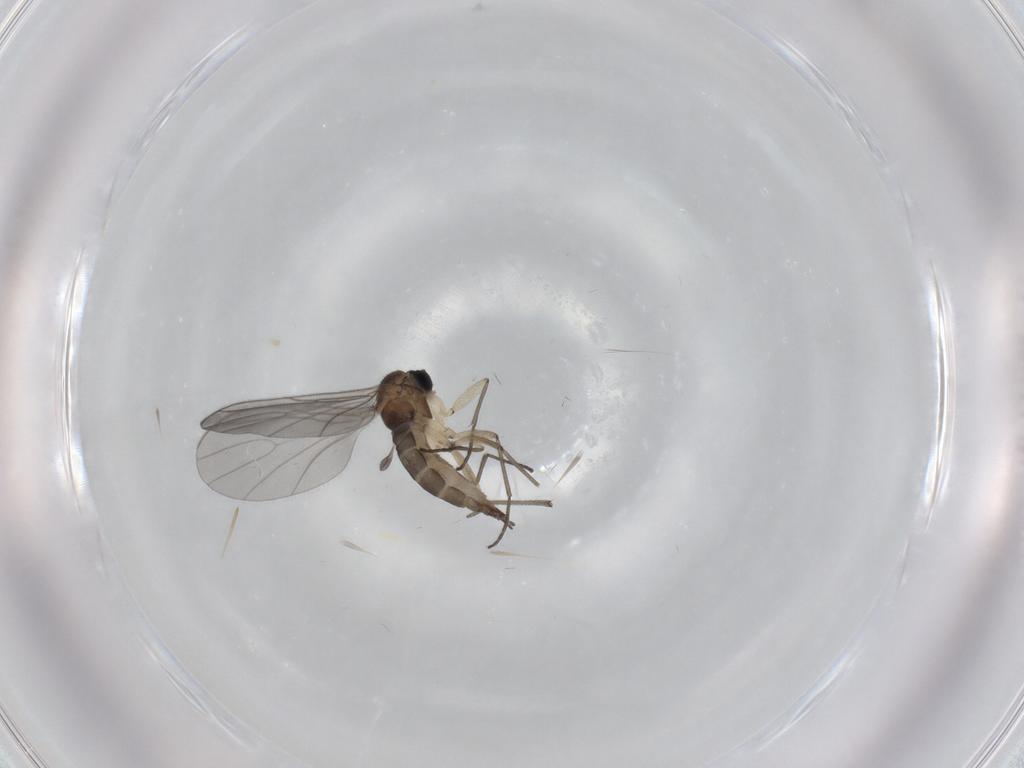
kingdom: Animalia
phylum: Arthropoda
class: Insecta
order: Diptera
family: Sciaridae
